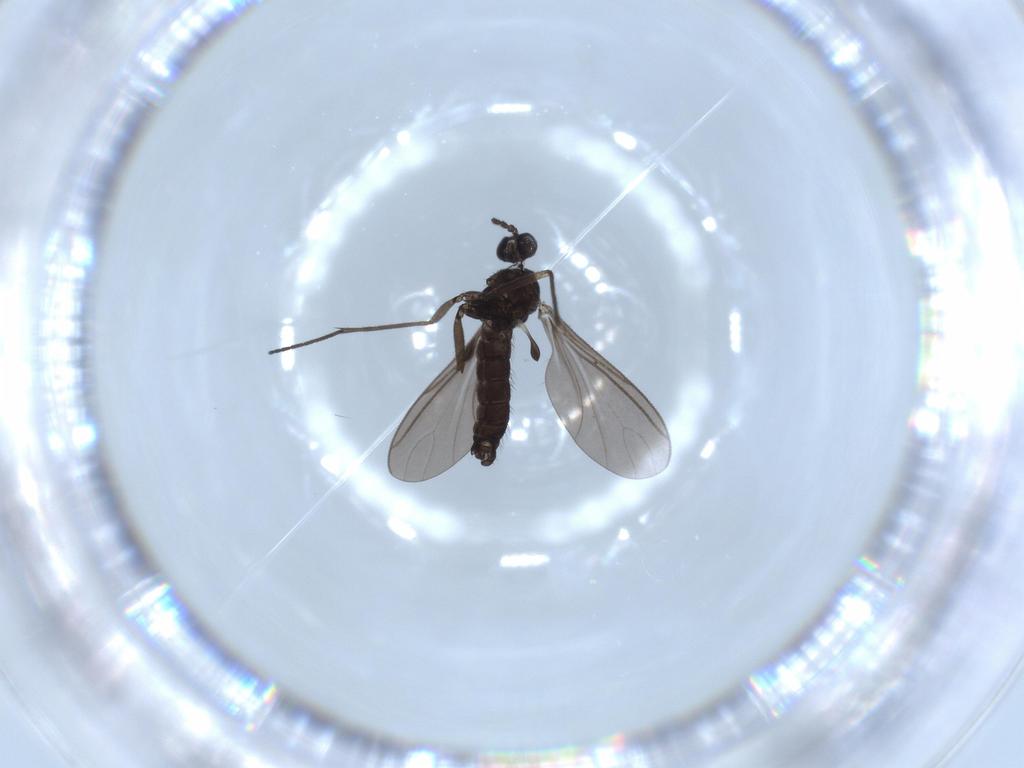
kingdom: Animalia
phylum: Arthropoda
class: Insecta
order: Diptera
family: Sciaridae
